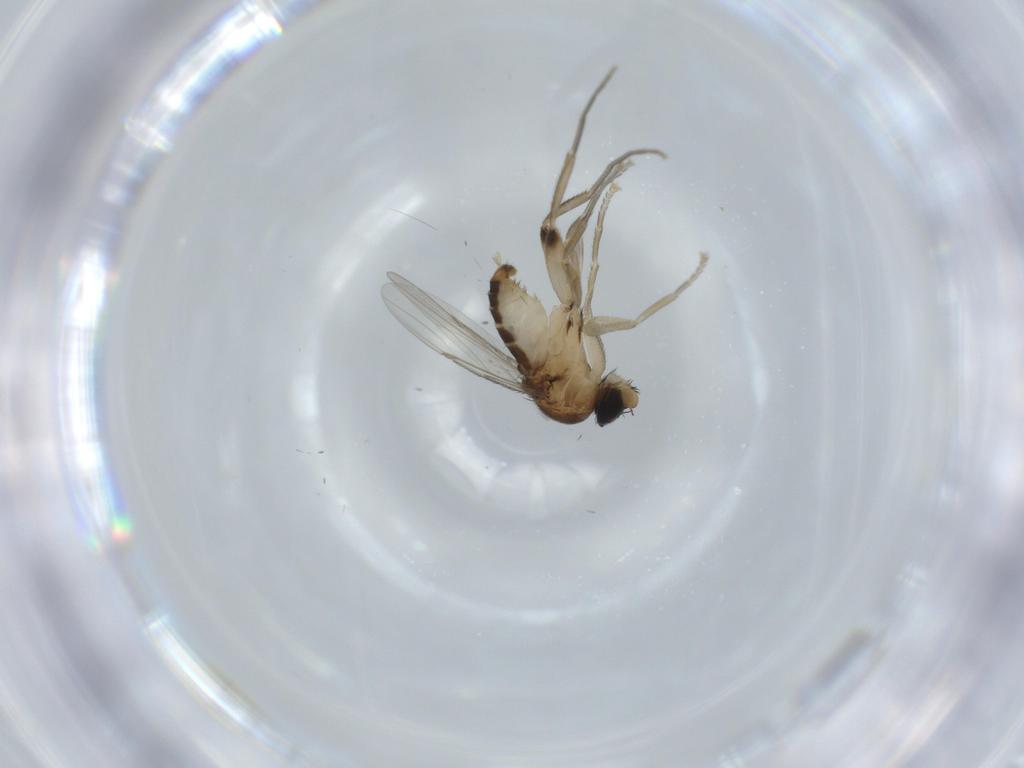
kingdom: Animalia
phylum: Arthropoda
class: Insecta
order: Diptera
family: Phoridae
